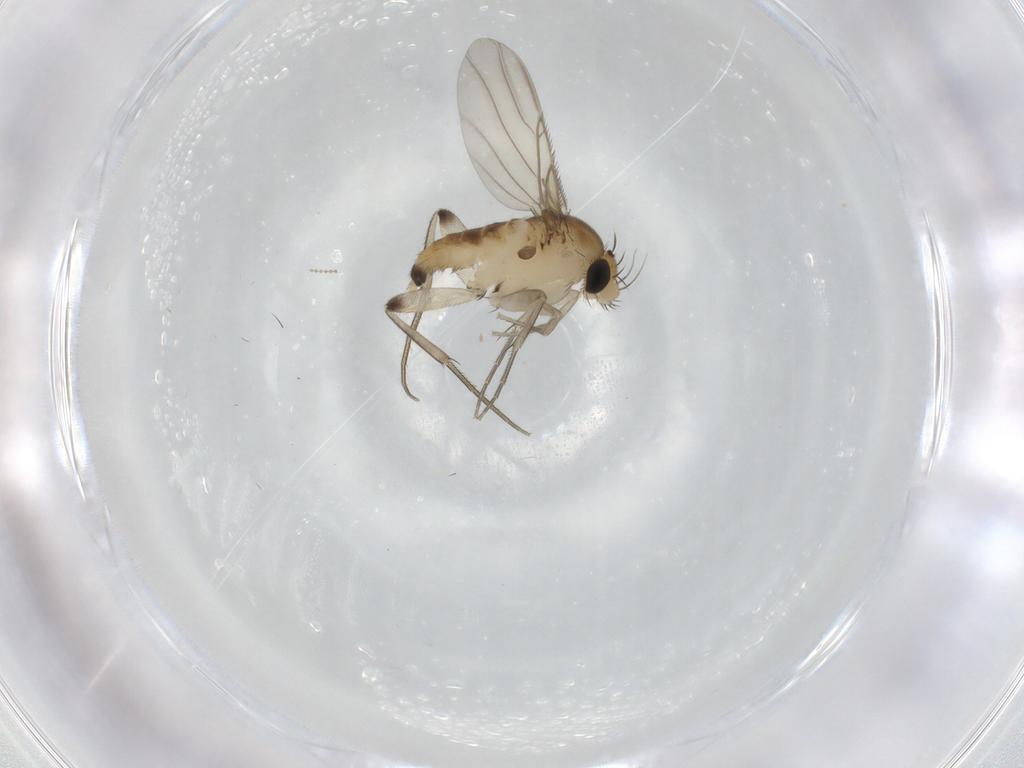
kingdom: Animalia
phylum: Arthropoda
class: Insecta
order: Diptera
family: Phoridae
